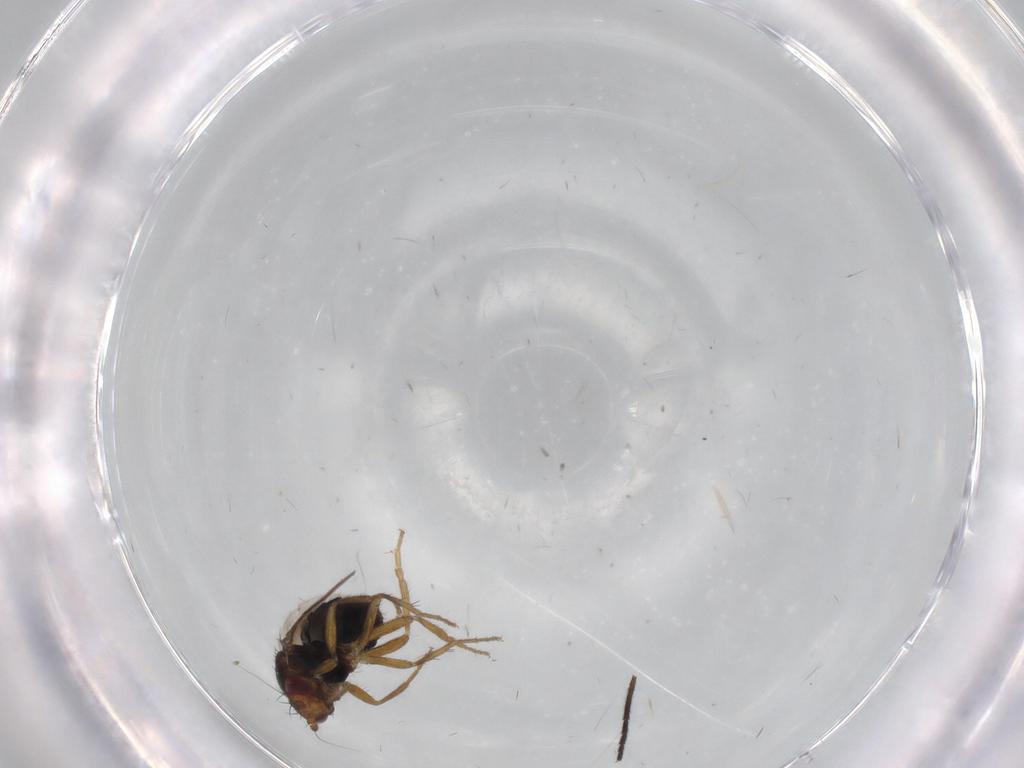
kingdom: Animalia
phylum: Arthropoda
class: Insecta
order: Diptera
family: Sphaeroceridae
